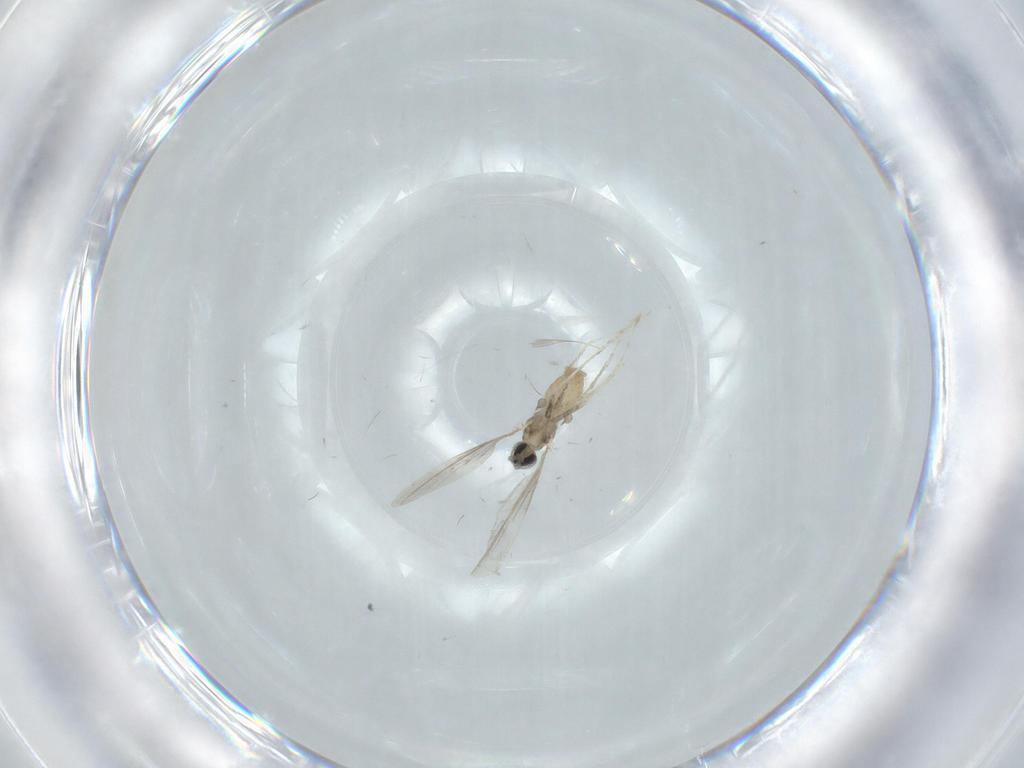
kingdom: Animalia
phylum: Arthropoda
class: Insecta
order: Diptera
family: Cecidomyiidae
